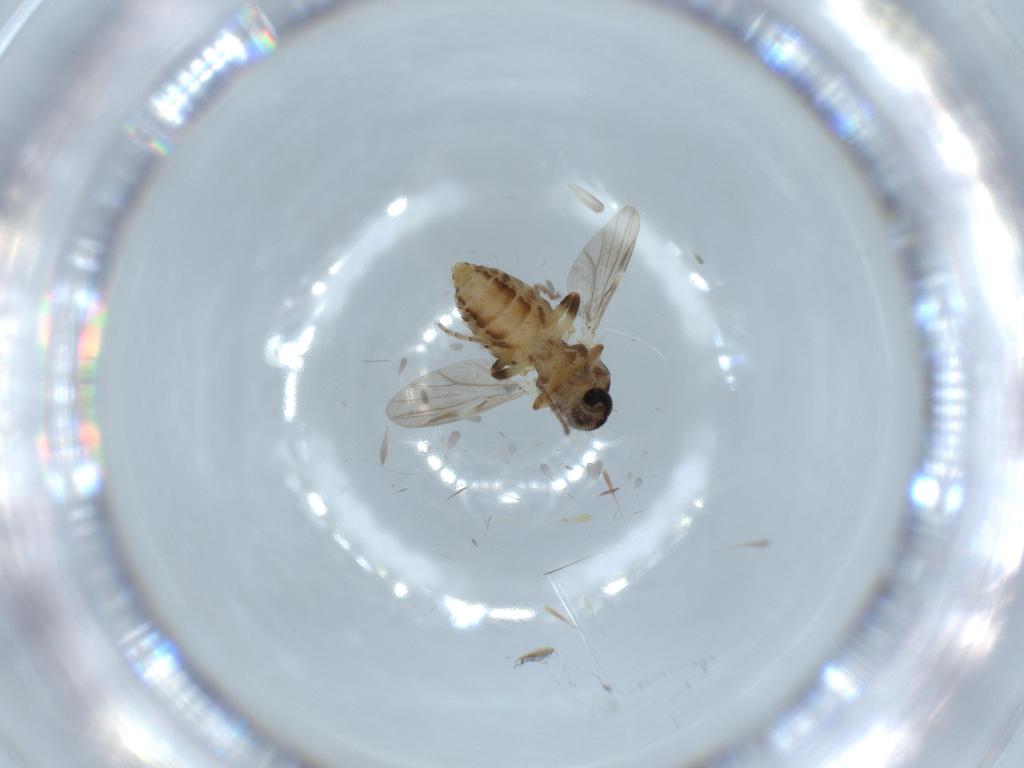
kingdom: Animalia
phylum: Arthropoda
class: Insecta
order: Diptera
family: Ceratopogonidae
